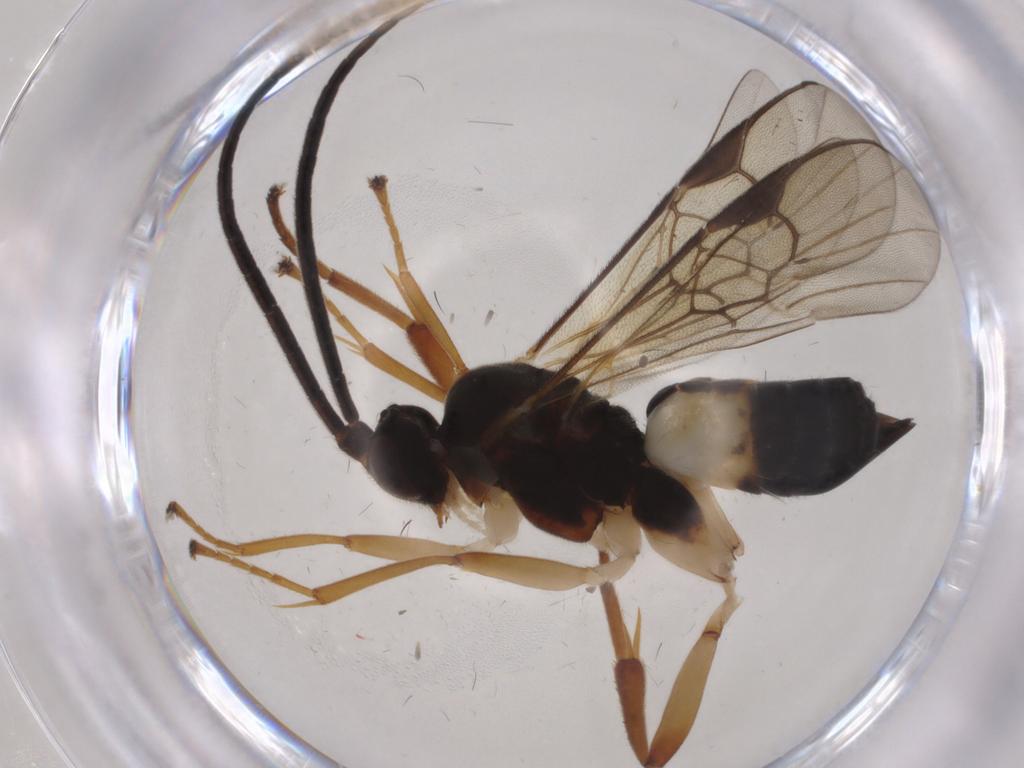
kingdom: Animalia
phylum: Arthropoda
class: Insecta
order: Hymenoptera
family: Braconidae
